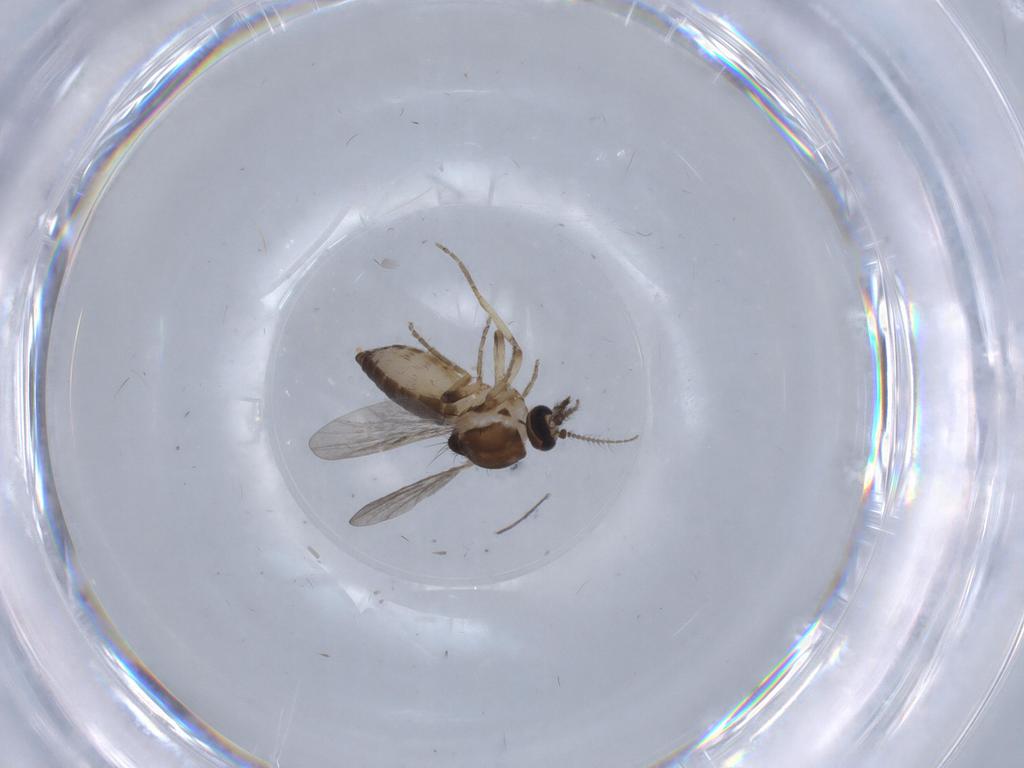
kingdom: Animalia
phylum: Arthropoda
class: Insecta
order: Diptera
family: Ceratopogonidae
